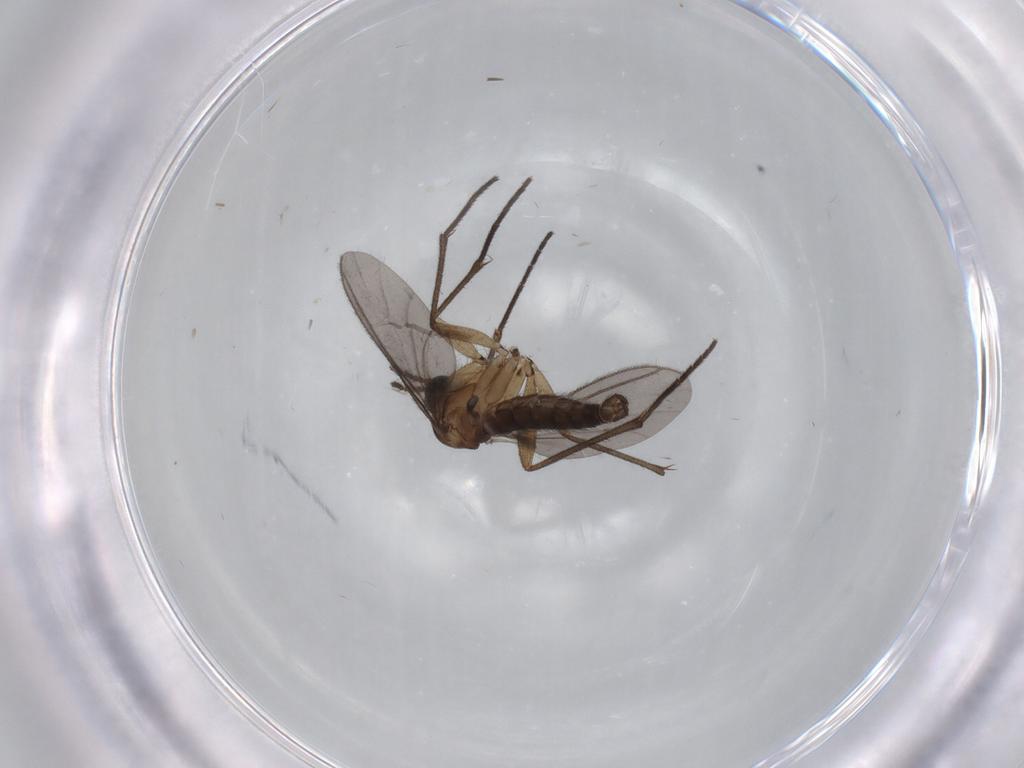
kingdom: Animalia
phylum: Arthropoda
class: Insecta
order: Diptera
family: Sciaridae
